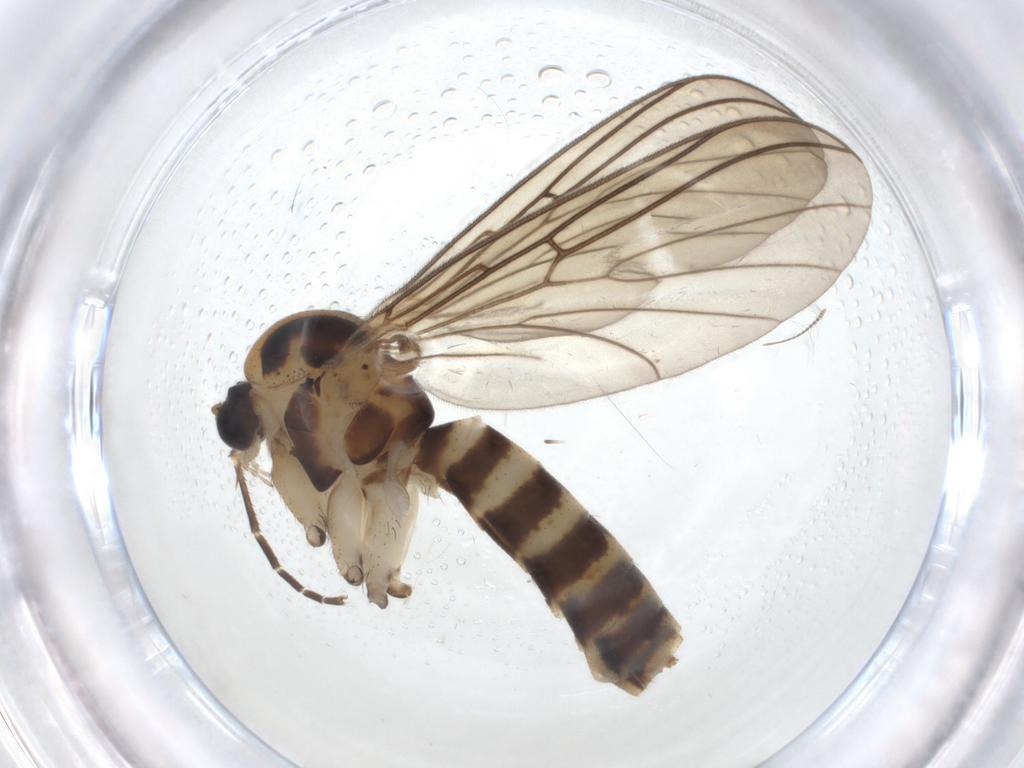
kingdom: Animalia
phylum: Arthropoda
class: Insecta
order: Diptera
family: Mycetophilidae
